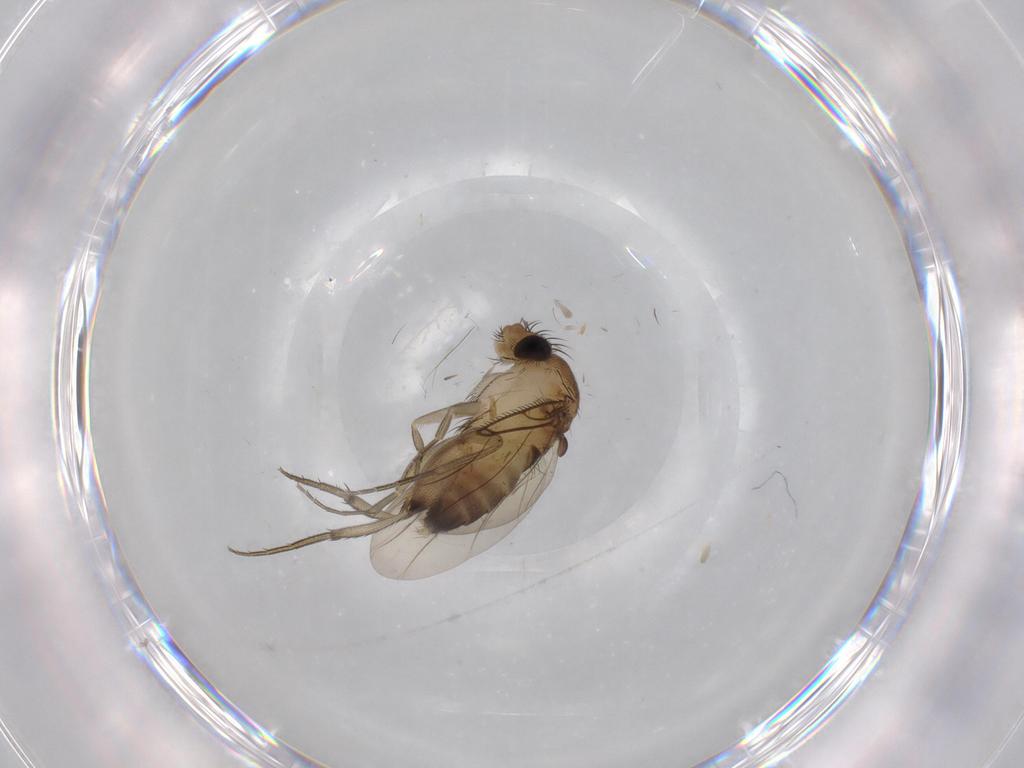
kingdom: Animalia
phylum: Arthropoda
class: Insecta
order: Diptera
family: Phoridae
